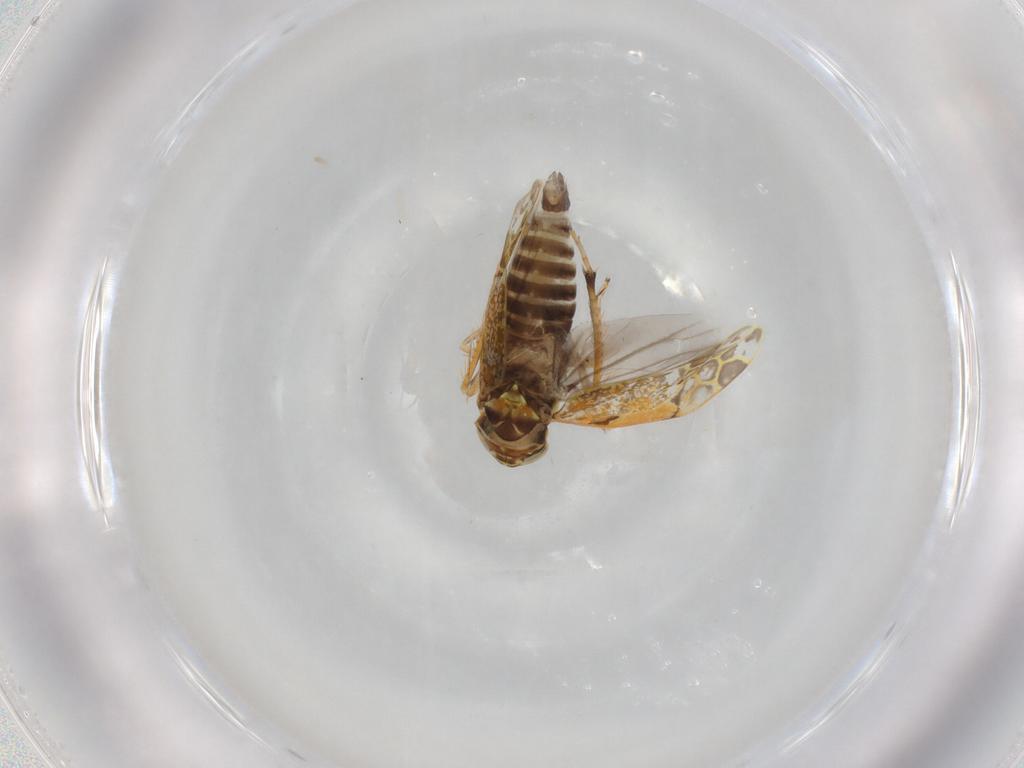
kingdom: Animalia
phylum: Arthropoda
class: Insecta
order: Hemiptera
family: Cicadellidae
